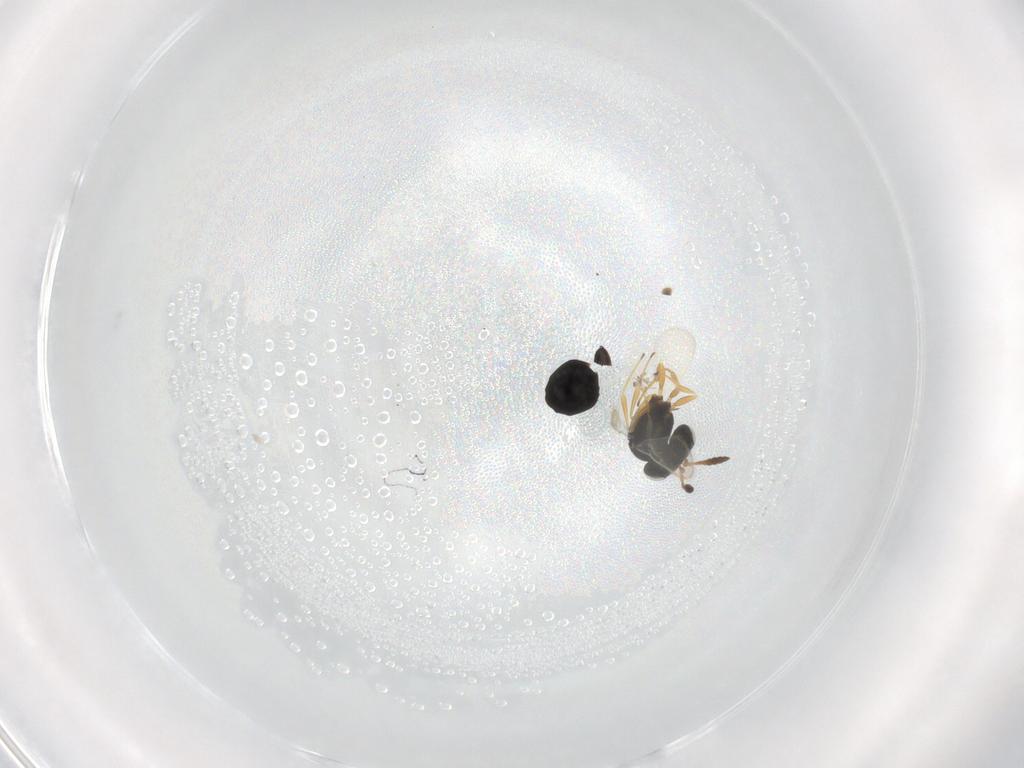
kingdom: Animalia
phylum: Arthropoda
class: Insecta
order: Hymenoptera
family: Scelionidae
